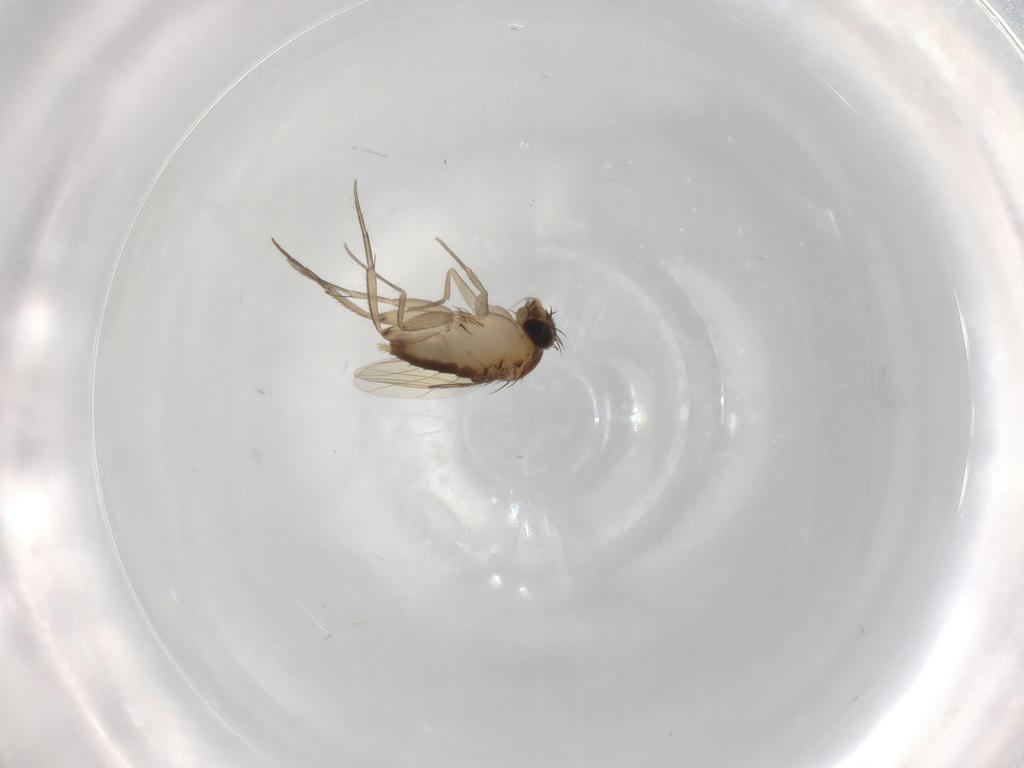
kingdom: Animalia
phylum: Arthropoda
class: Insecta
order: Diptera
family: Phoridae
